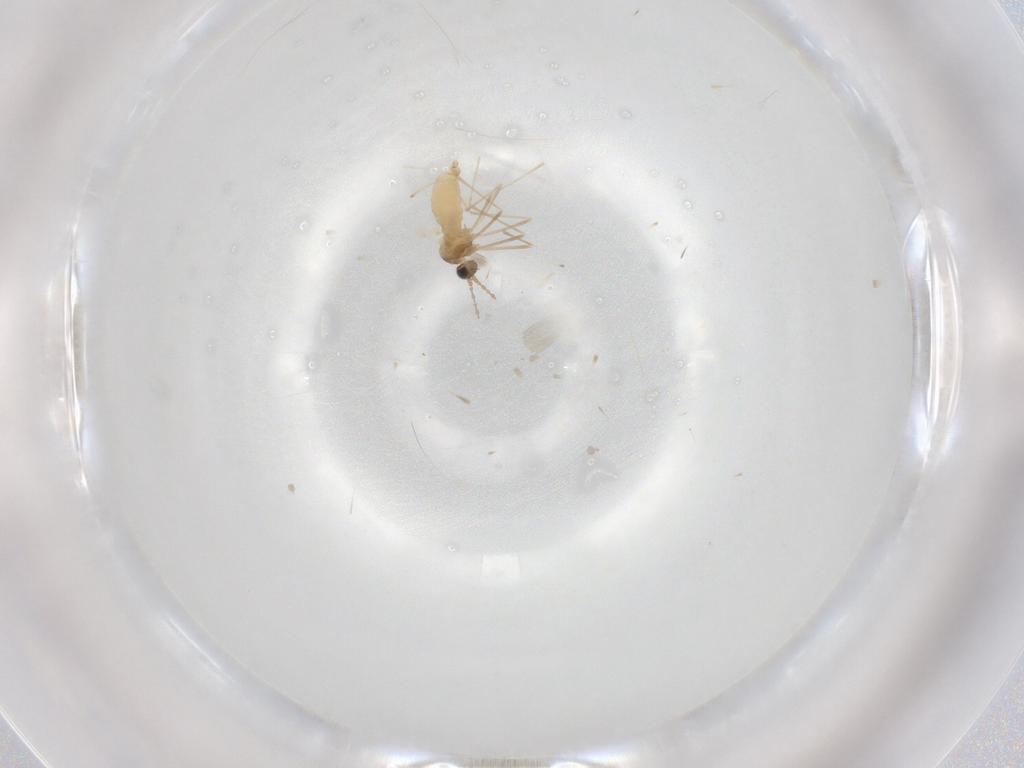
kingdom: Animalia
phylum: Arthropoda
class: Insecta
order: Diptera
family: Cecidomyiidae
